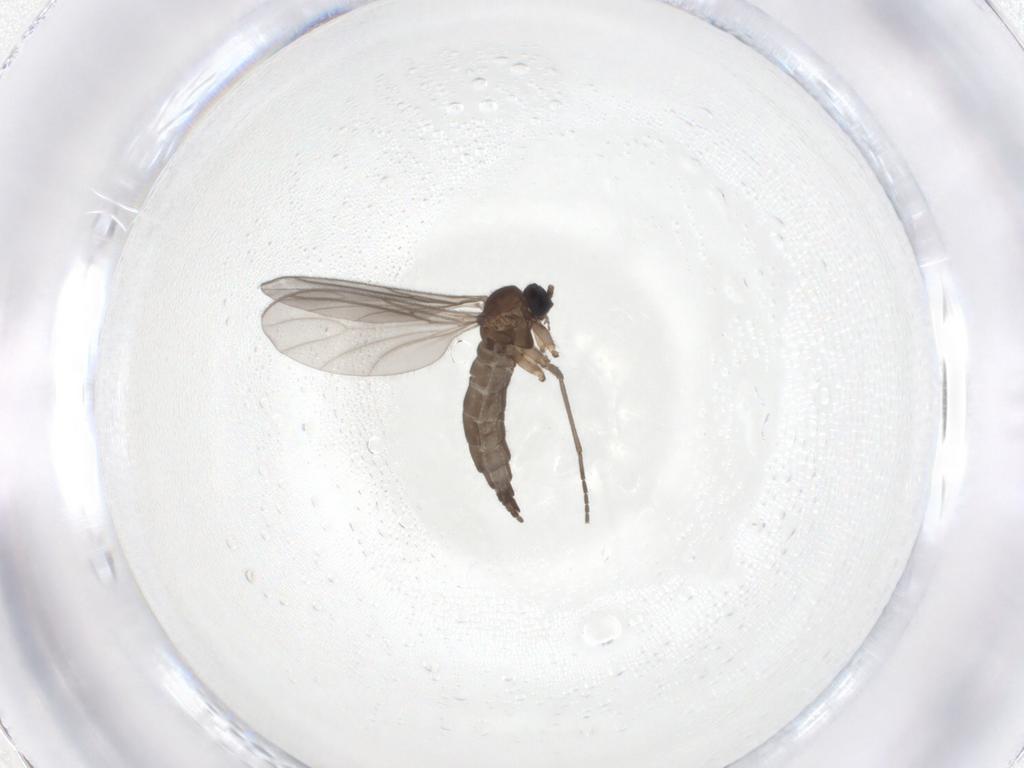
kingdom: Animalia
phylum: Arthropoda
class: Insecta
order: Diptera
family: Sciaridae
